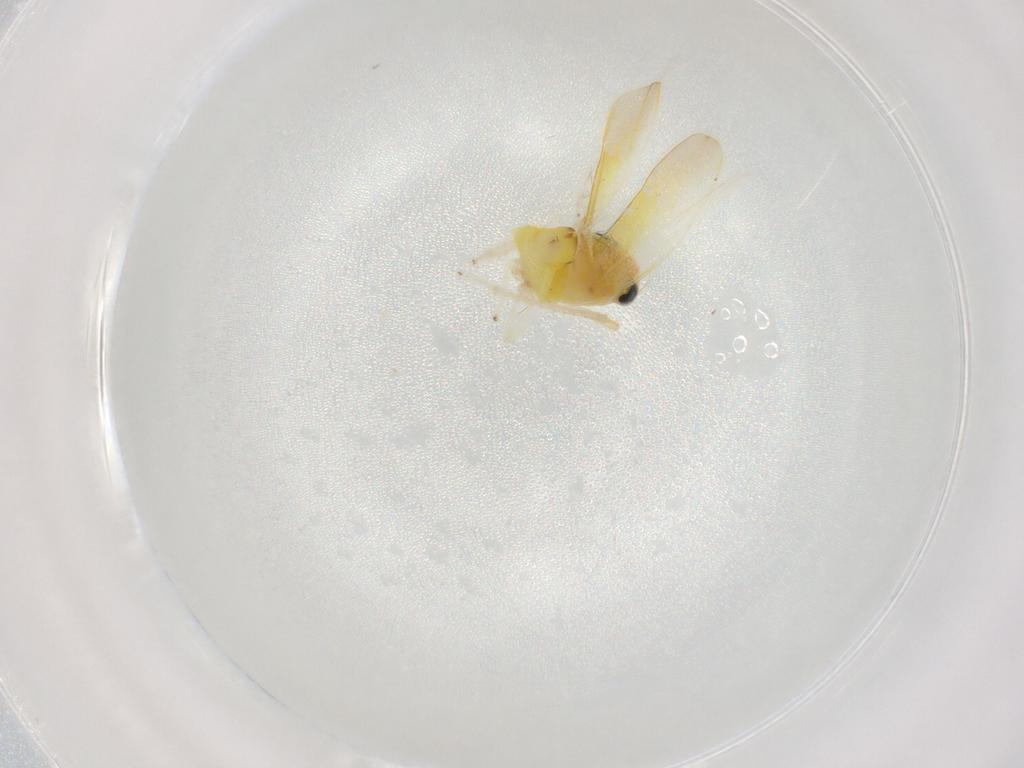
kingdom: Animalia
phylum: Arthropoda
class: Insecta
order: Hemiptera
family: Cicadellidae
